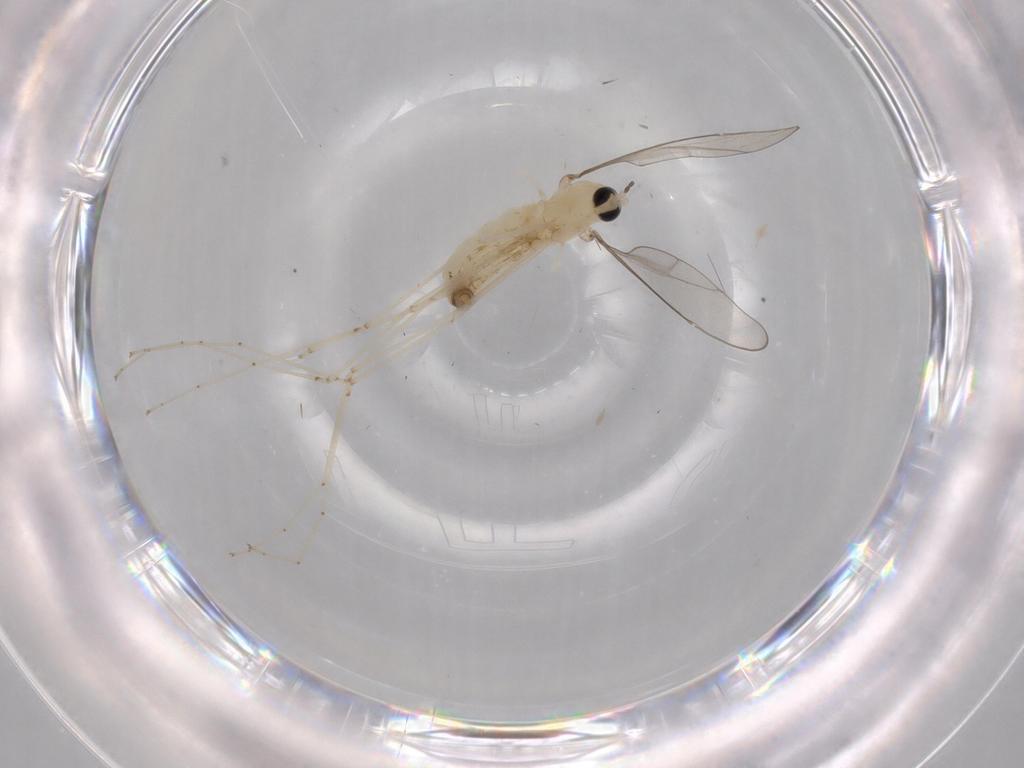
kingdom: Animalia
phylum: Arthropoda
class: Insecta
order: Diptera
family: Cecidomyiidae
